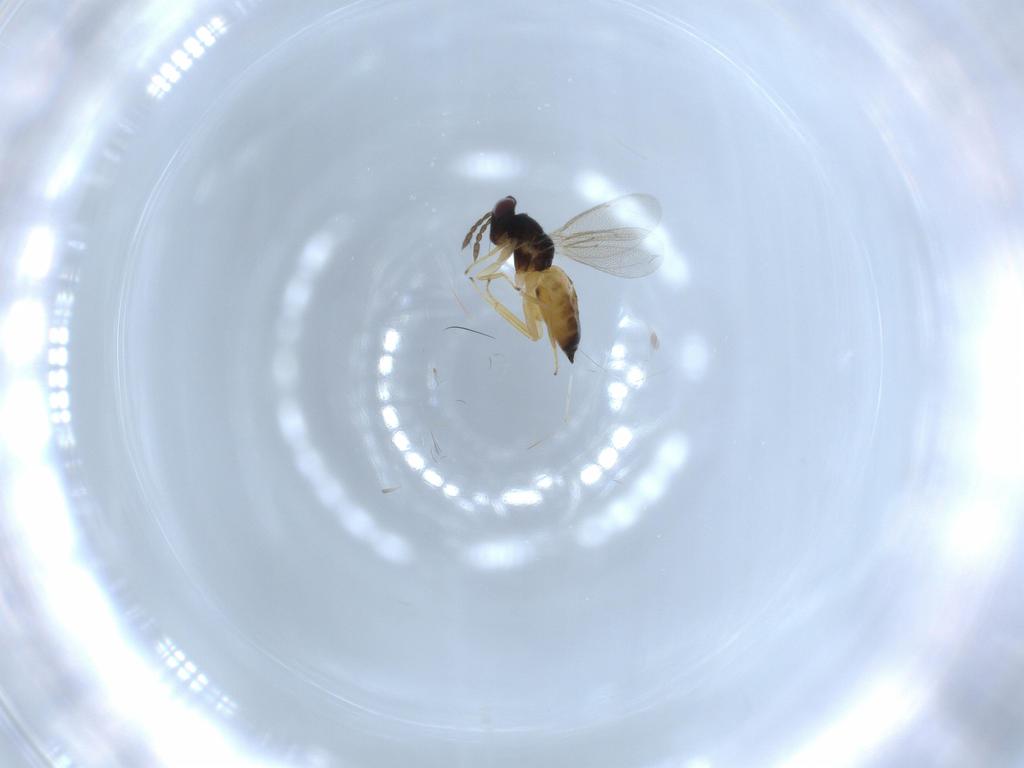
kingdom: Animalia
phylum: Arthropoda
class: Insecta
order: Hymenoptera
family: Eulophidae
